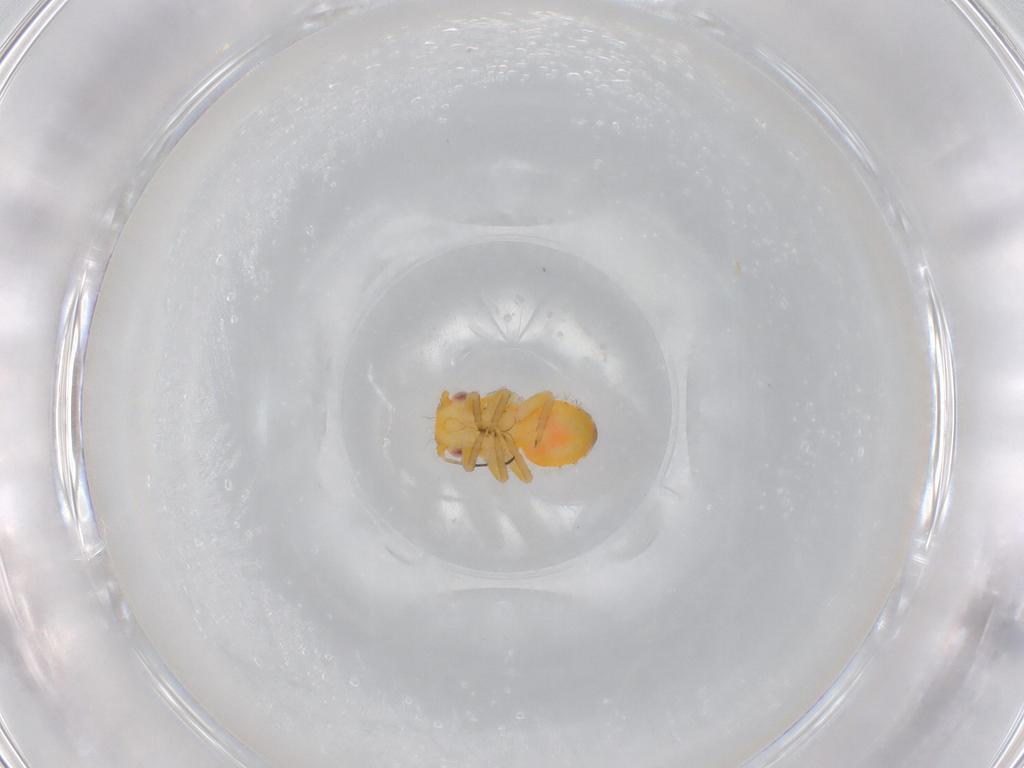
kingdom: Animalia
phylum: Arthropoda
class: Insecta
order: Hemiptera
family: Psylloidea_incertae_sedis
